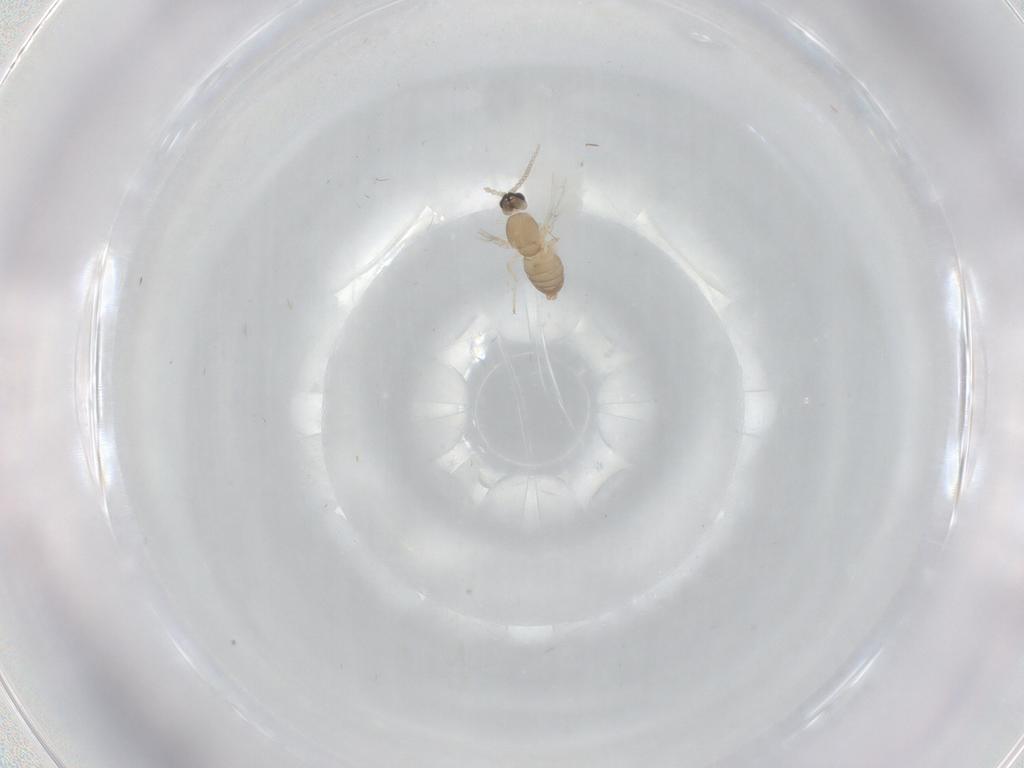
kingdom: Animalia
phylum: Arthropoda
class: Insecta
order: Diptera
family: Cecidomyiidae
